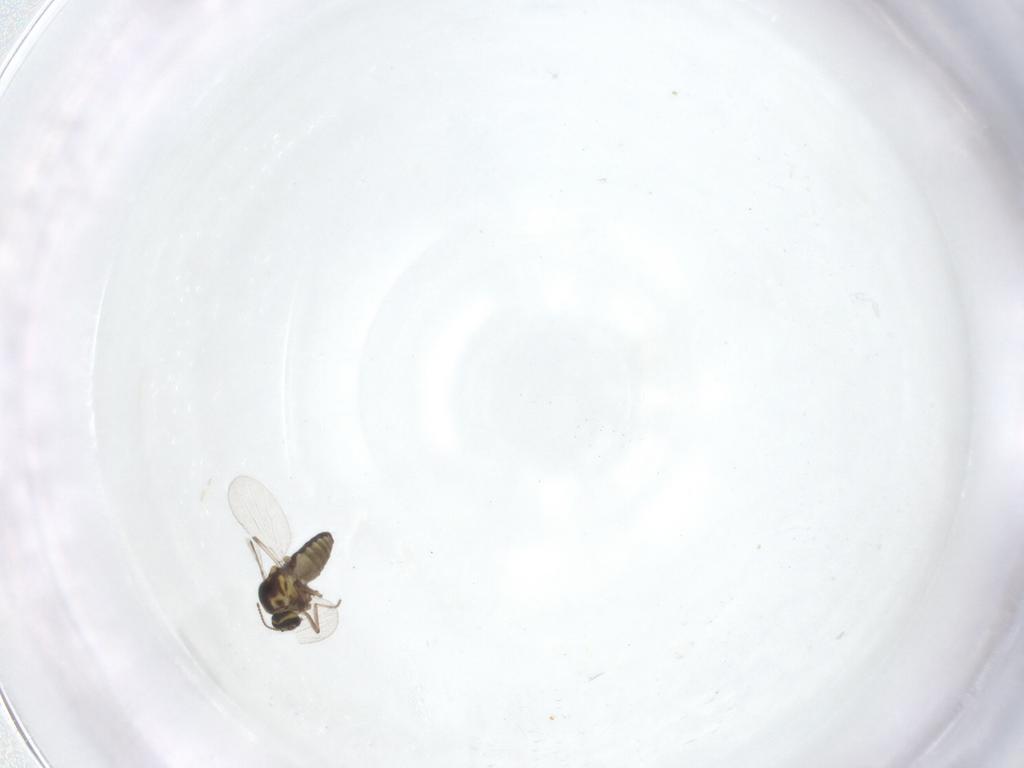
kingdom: Animalia
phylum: Arthropoda
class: Insecta
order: Diptera
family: Ceratopogonidae
